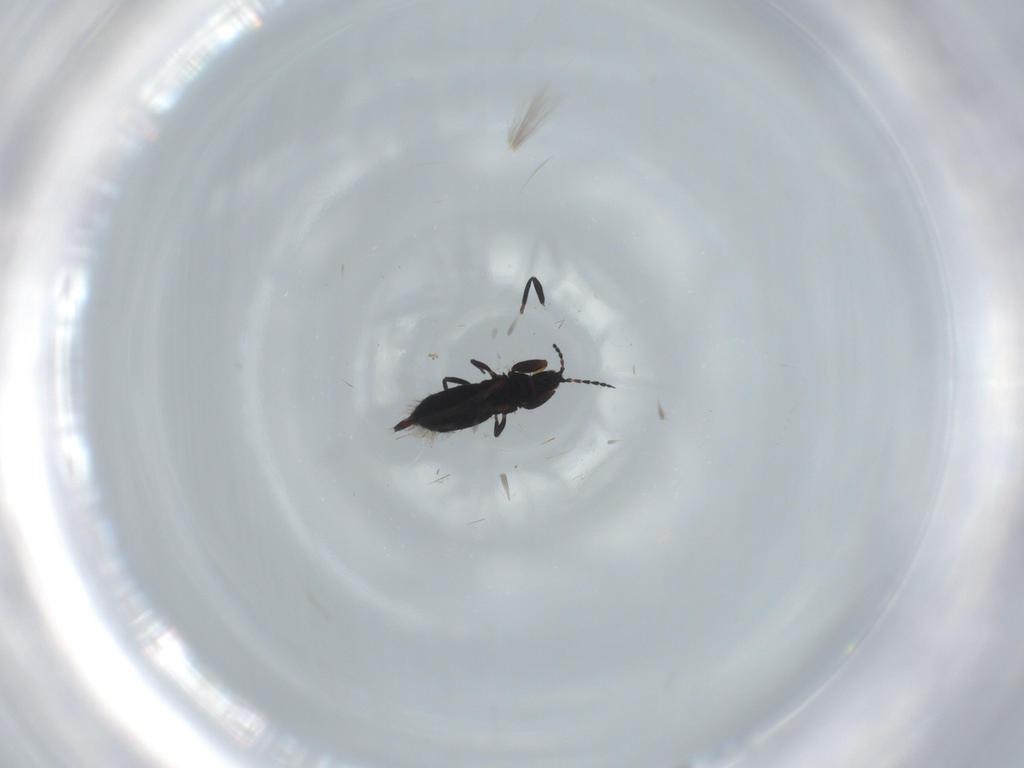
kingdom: Animalia
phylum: Arthropoda
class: Insecta
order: Thysanoptera
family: Phlaeothripidae
